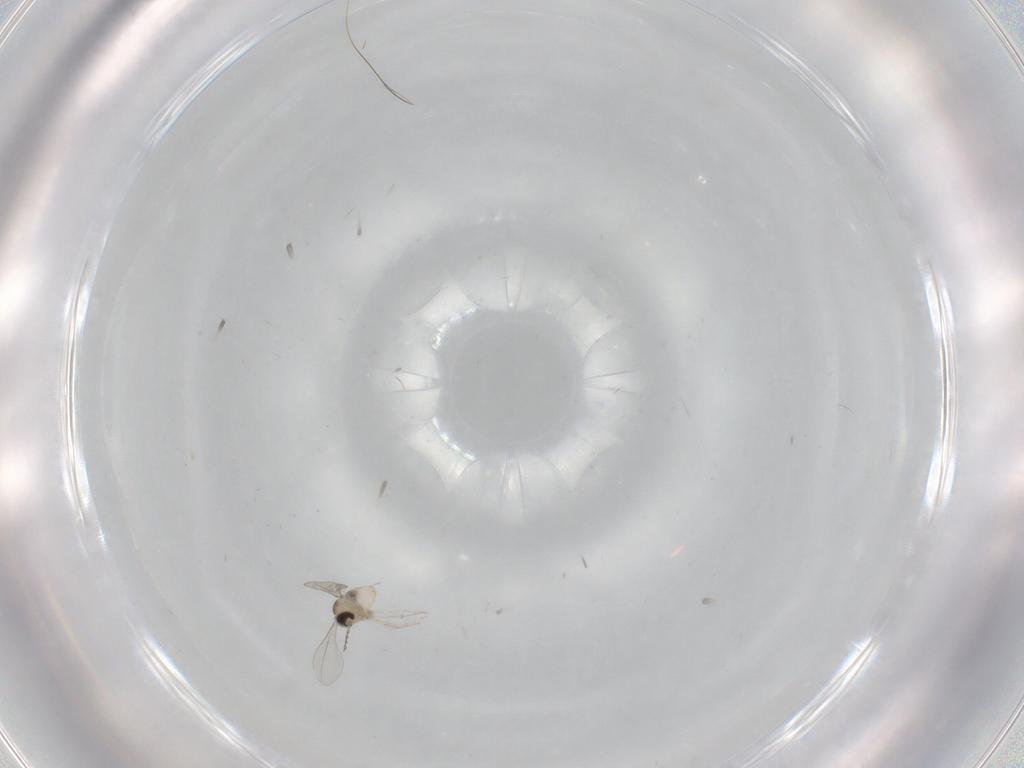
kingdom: Animalia
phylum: Arthropoda
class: Insecta
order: Diptera
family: Cecidomyiidae
